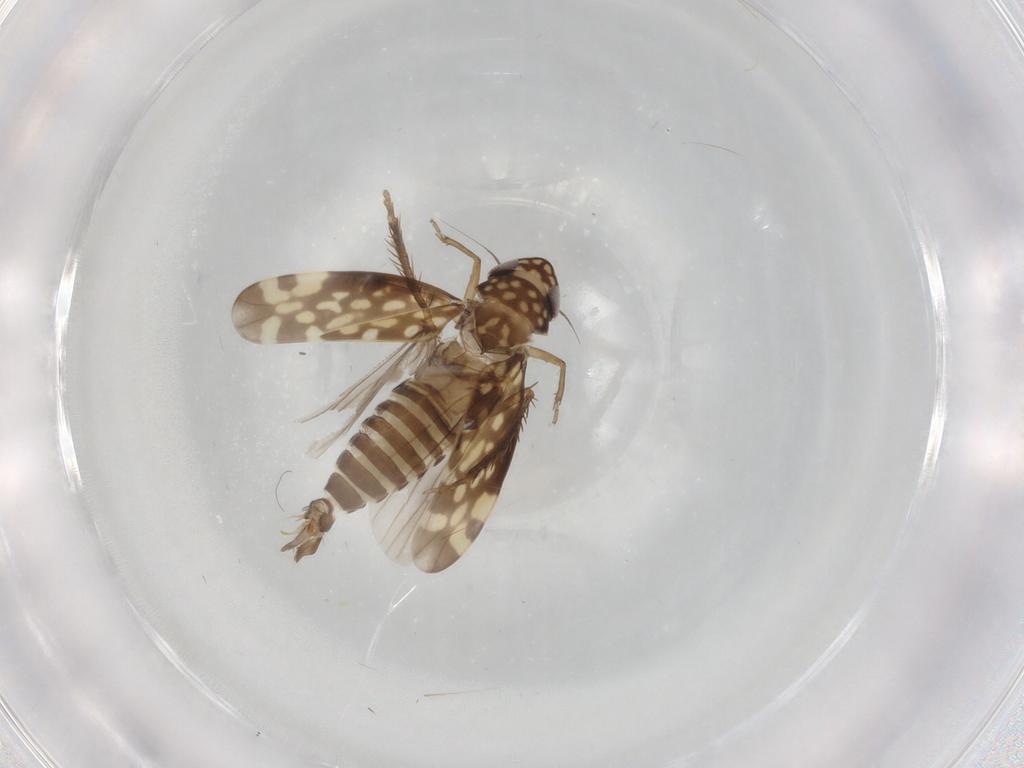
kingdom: Animalia
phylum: Arthropoda
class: Insecta
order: Hemiptera
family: Cicadellidae
